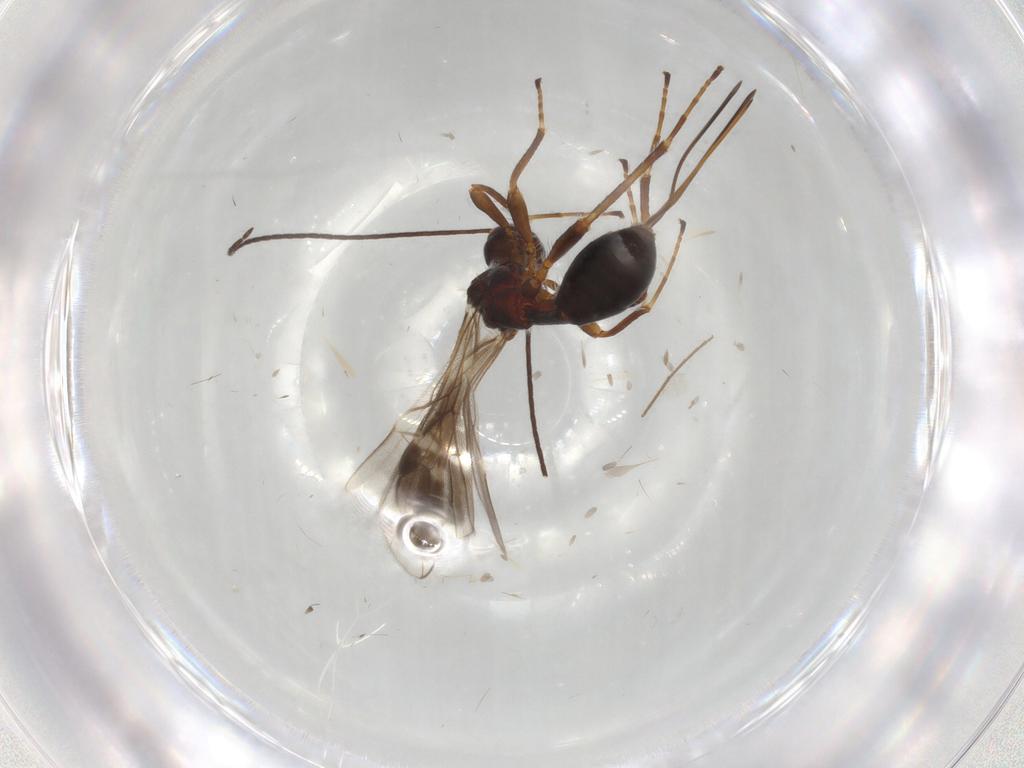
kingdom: Animalia
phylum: Arthropoda
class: Insecta
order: Hymenoptera
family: Braconidae
